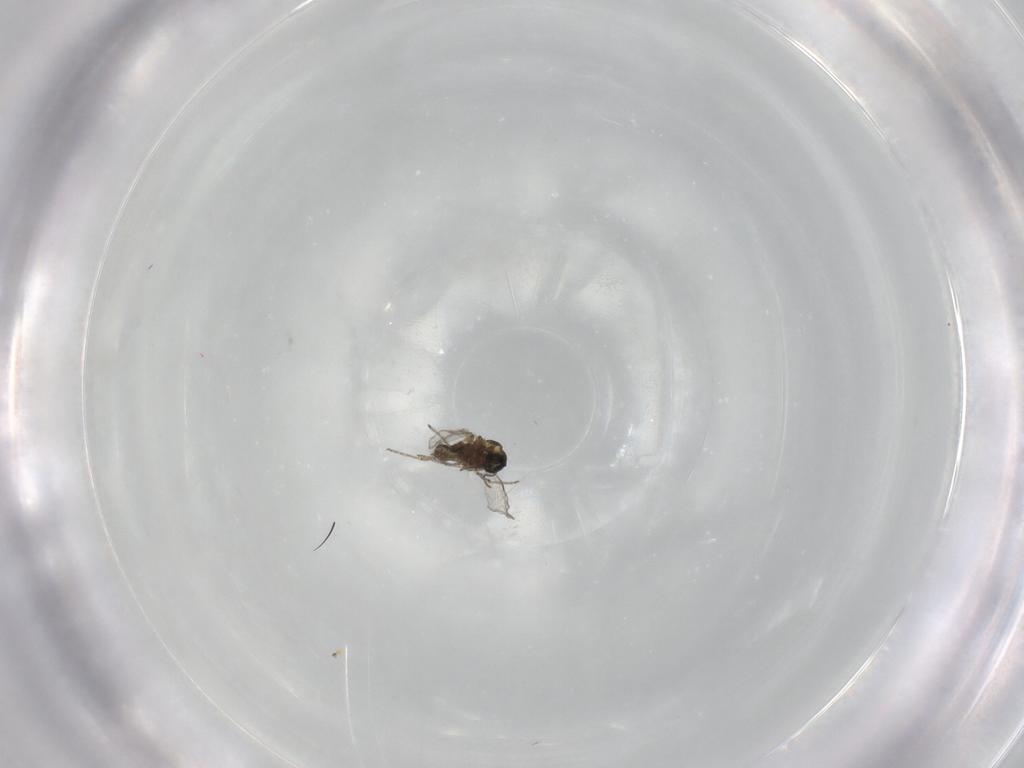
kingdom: Animalia
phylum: Arthropoda
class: Insecta
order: Diptera
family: Ceratopogonidae
